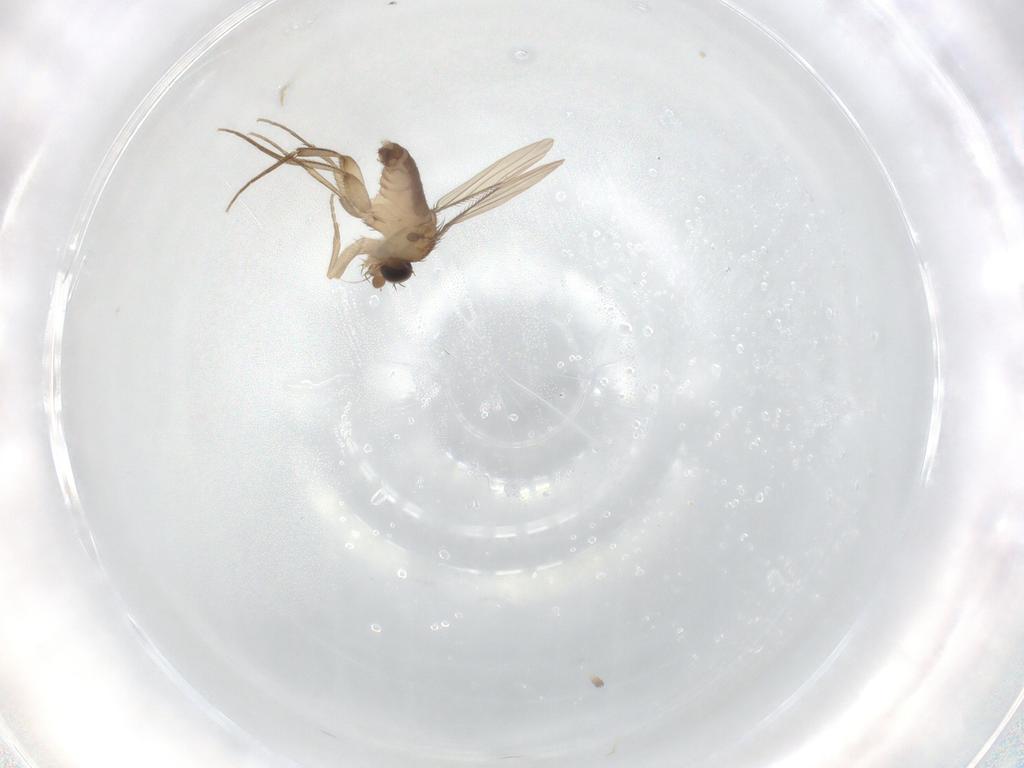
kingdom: Animalia
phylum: Arthropoda
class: Insecta
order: Diptera
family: Phoridae
